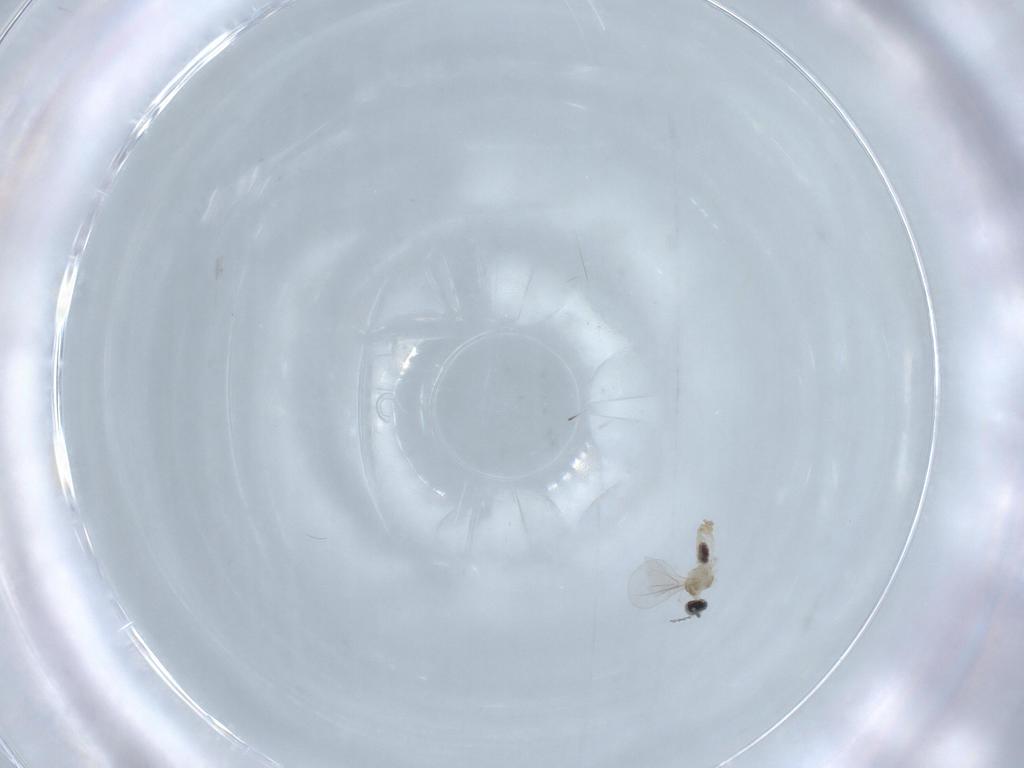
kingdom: Animalia
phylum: Arthropoda
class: Insecta
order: Diptera
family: Cecidomyiidae
